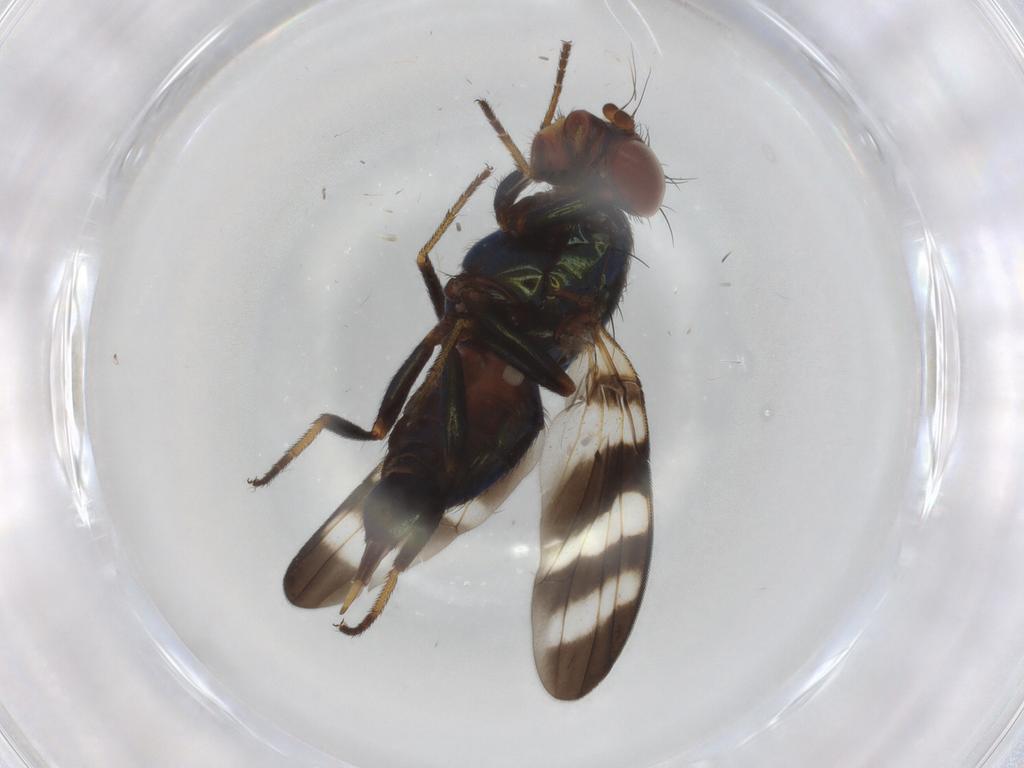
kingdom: Animalia
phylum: Arthropoda
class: Insecta
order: Diptera
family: Ulidiidae
